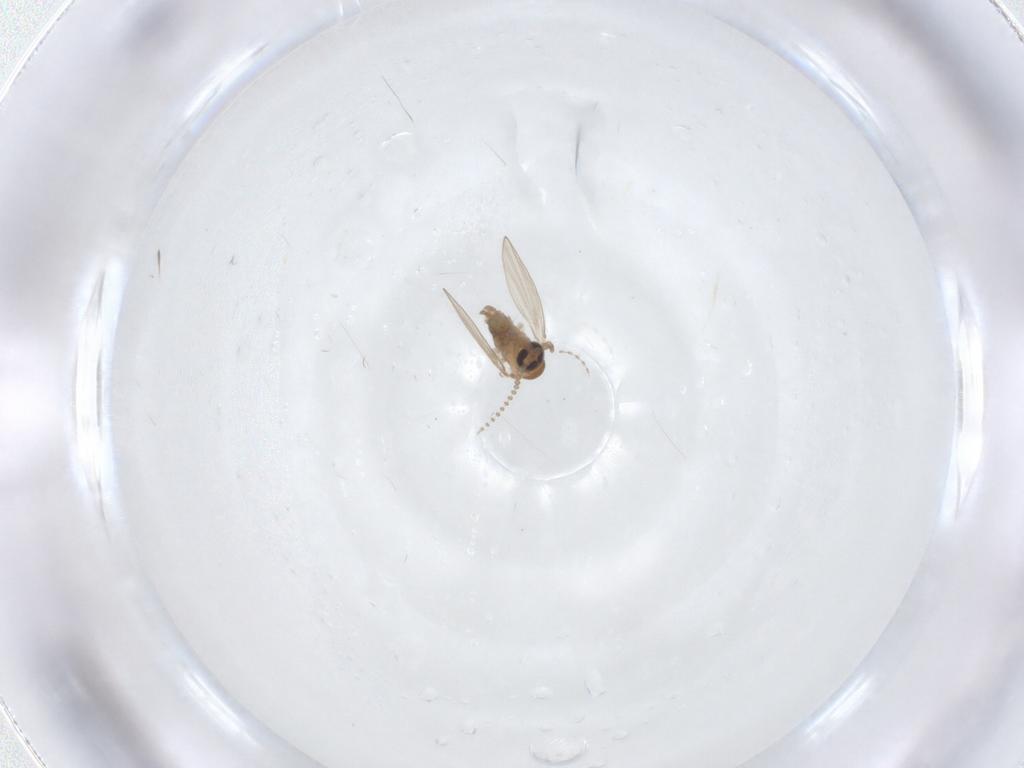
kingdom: Animalia
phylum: Arthropoda
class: Insecta
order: Diptera
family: Psychodidae
